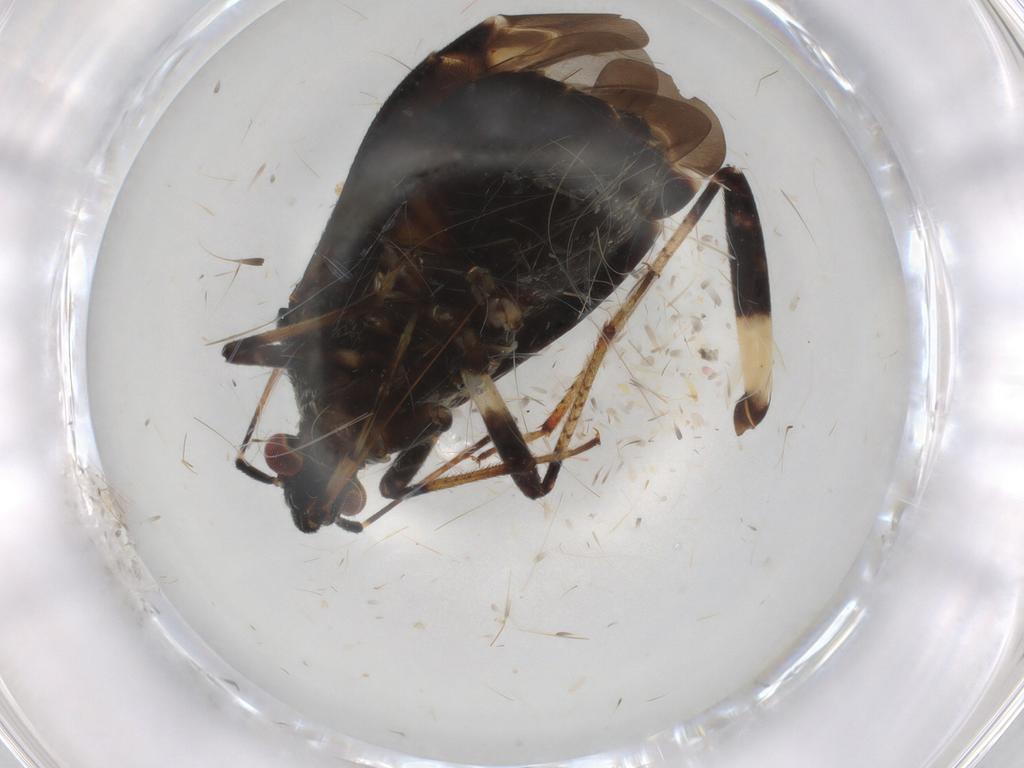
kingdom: Animalia
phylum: Arthropoda
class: Insecta
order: Hemiptera
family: Miridae
